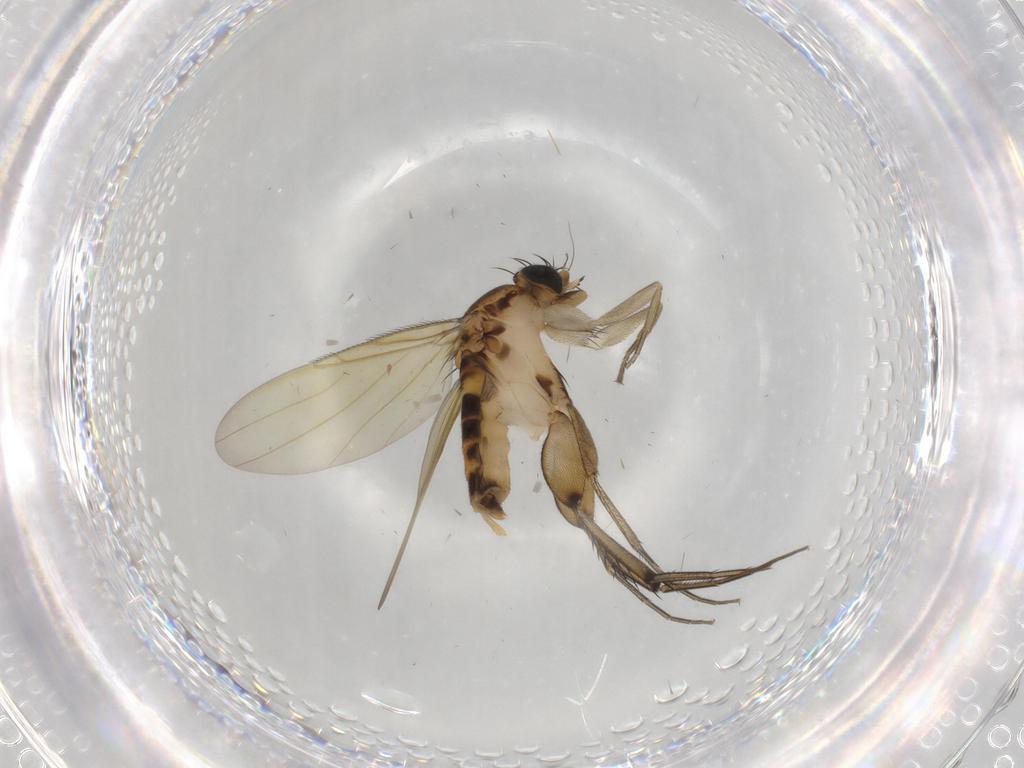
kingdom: Animalia
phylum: Arthropoda
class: Insecta
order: Diptera
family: Phoridae
